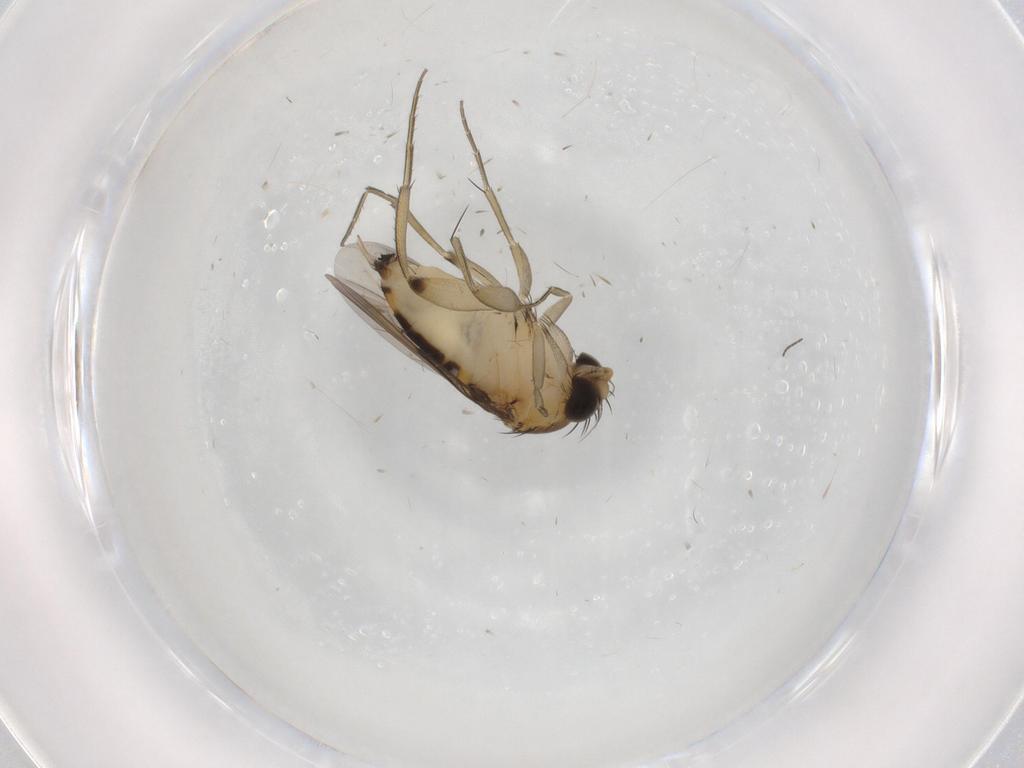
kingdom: Animalia
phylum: Arthropoda
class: Insecta
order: Diptera
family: Phoridae
